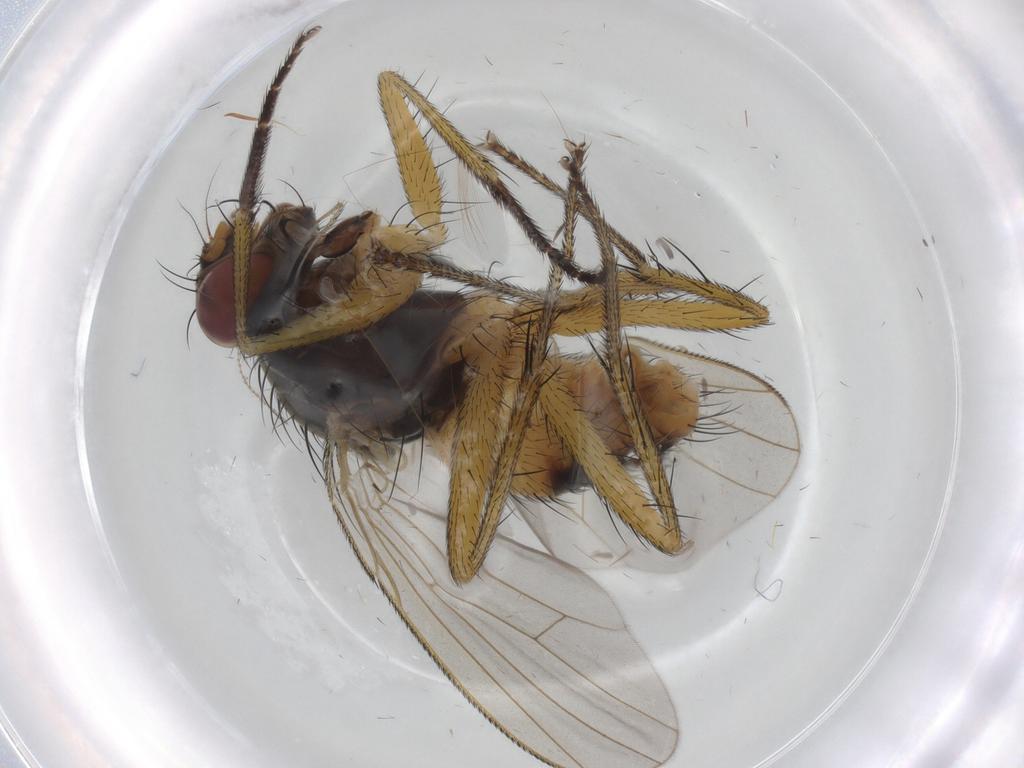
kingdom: Animalia
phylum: Arthropoda
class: Insecta
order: Diptera
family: Muscidae
